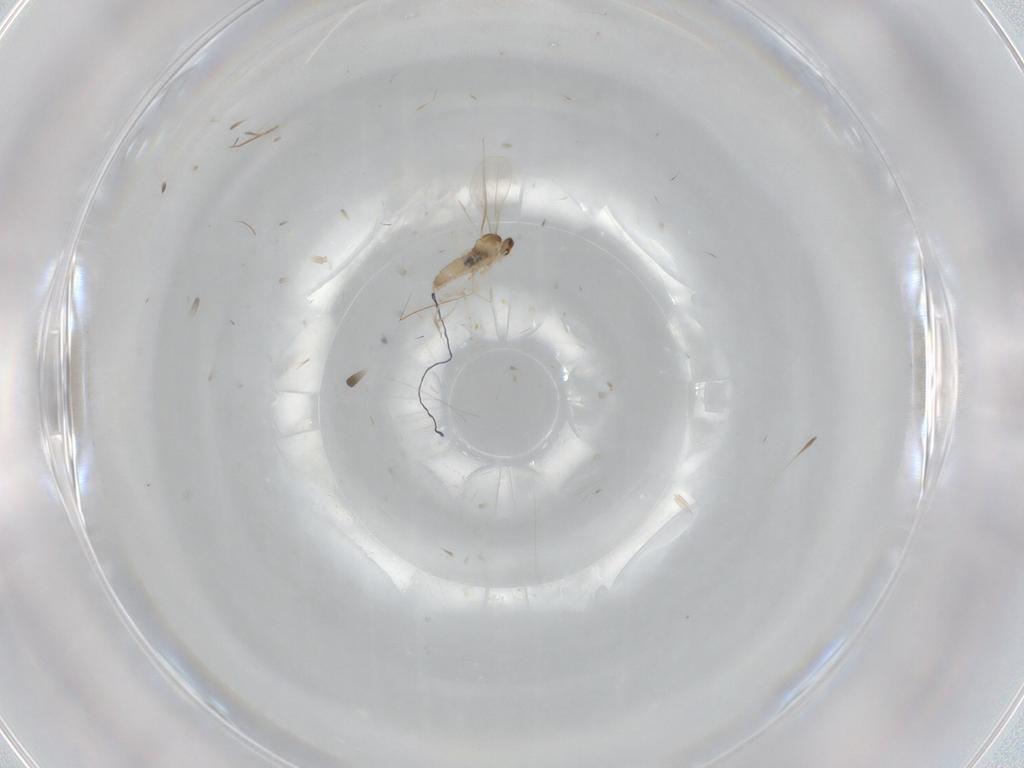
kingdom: Animalia
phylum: Arthropoda
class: Insecta
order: Diptera
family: Cecidomyiidae
